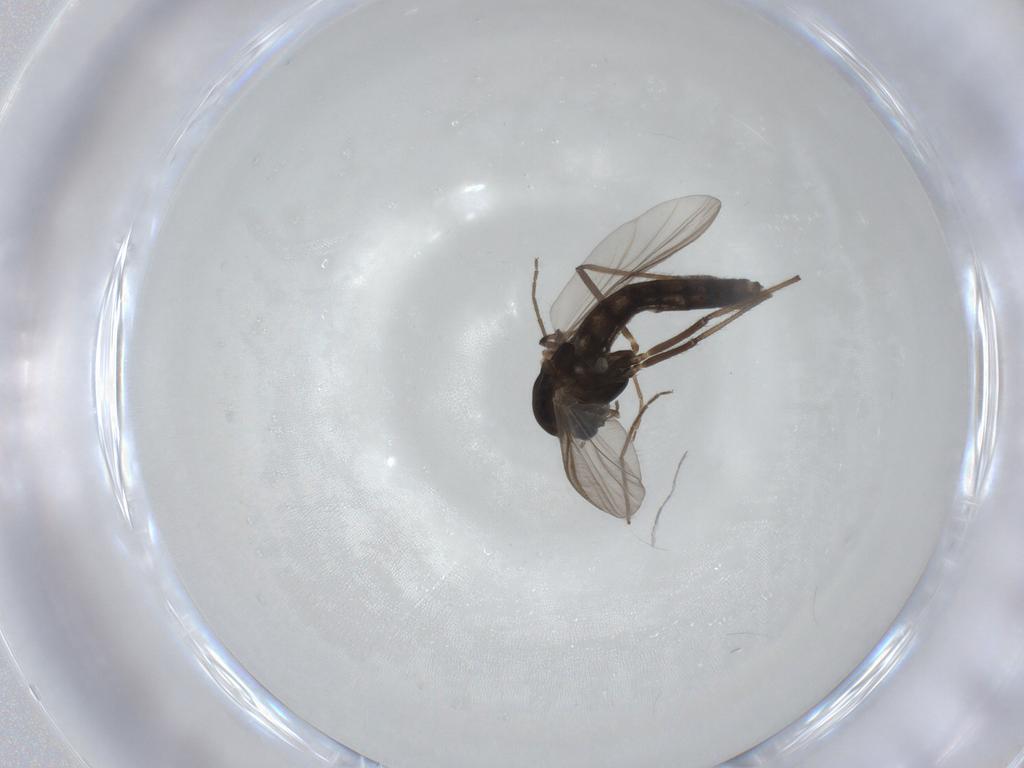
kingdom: Animalia
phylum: Arthropoda
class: Insecta
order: Diptera
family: Chironomidae
